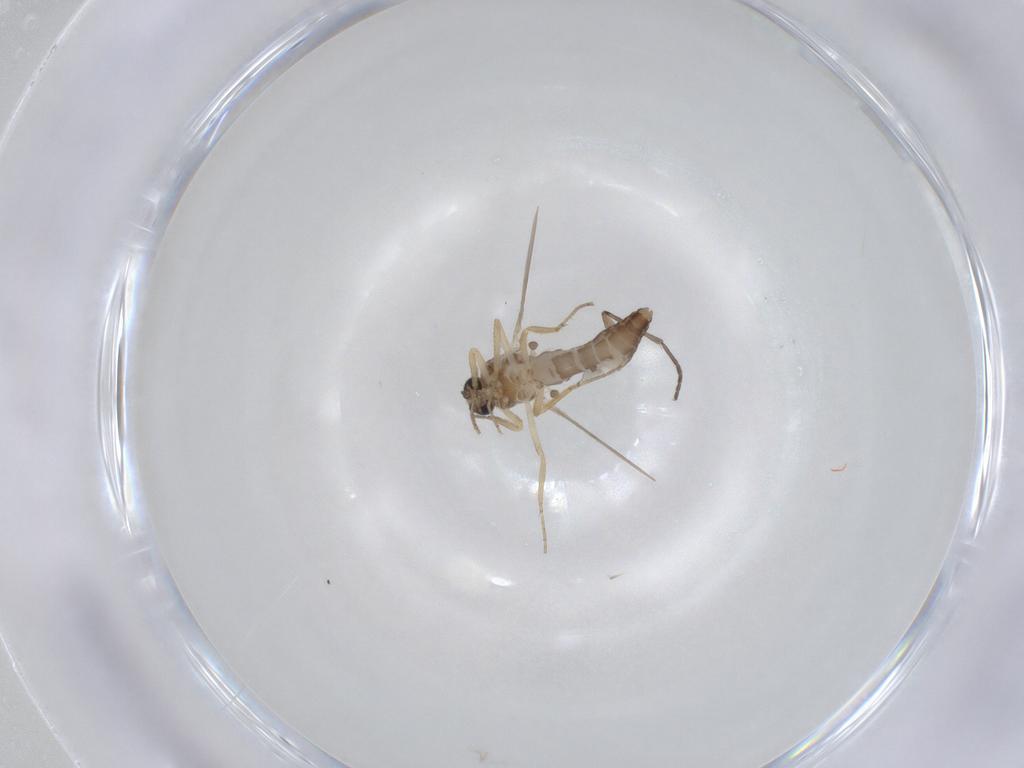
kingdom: Animalia
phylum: Arthropoda
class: Insecta
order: Diptera
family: Ceratopogonidae
